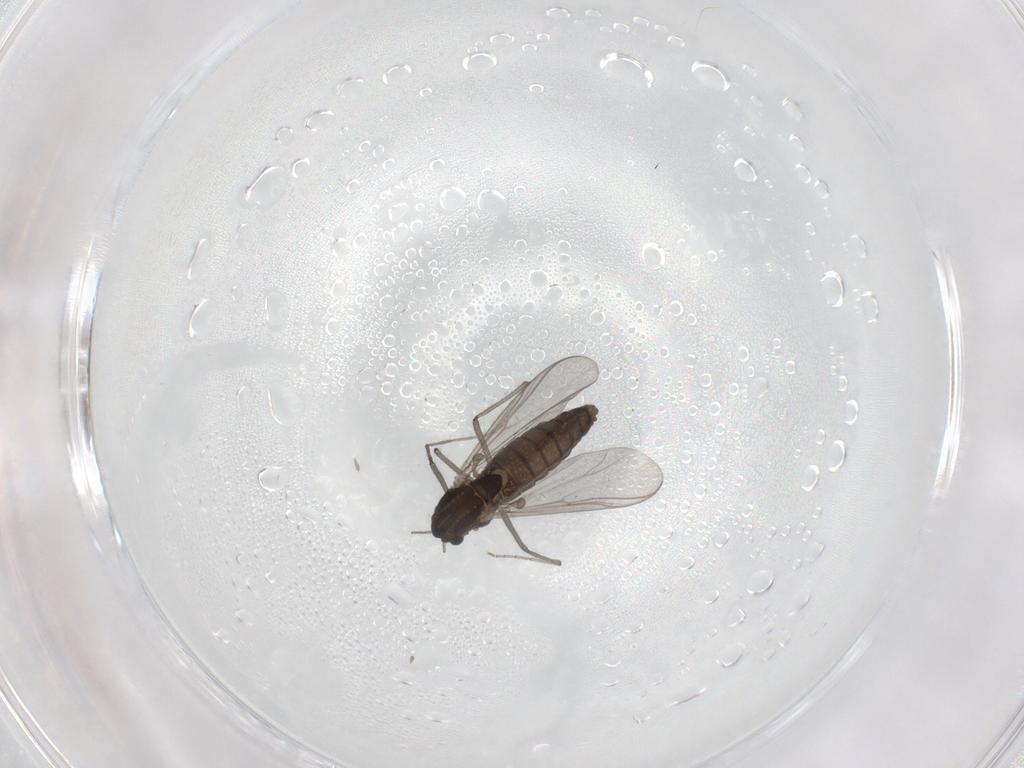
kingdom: Animalia
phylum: Arthropoda
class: Insecta
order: Diptera
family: Chironomidae
